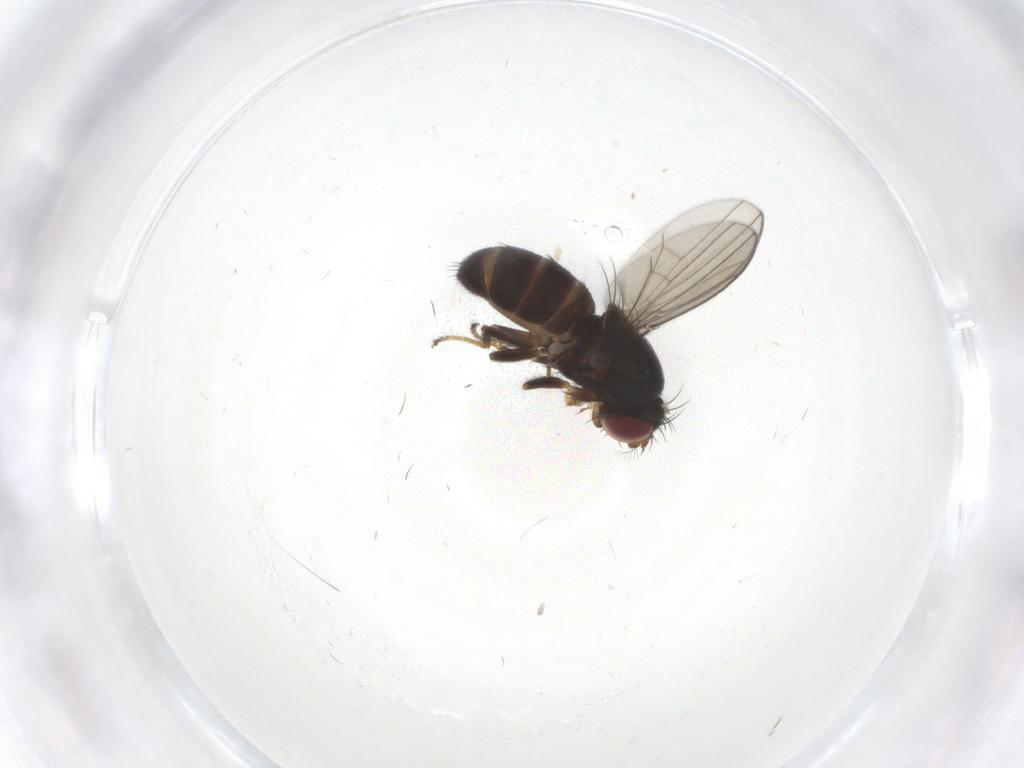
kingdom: Animalia
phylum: Arthropoda
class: Insecta
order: Diptera
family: Ephydridae
